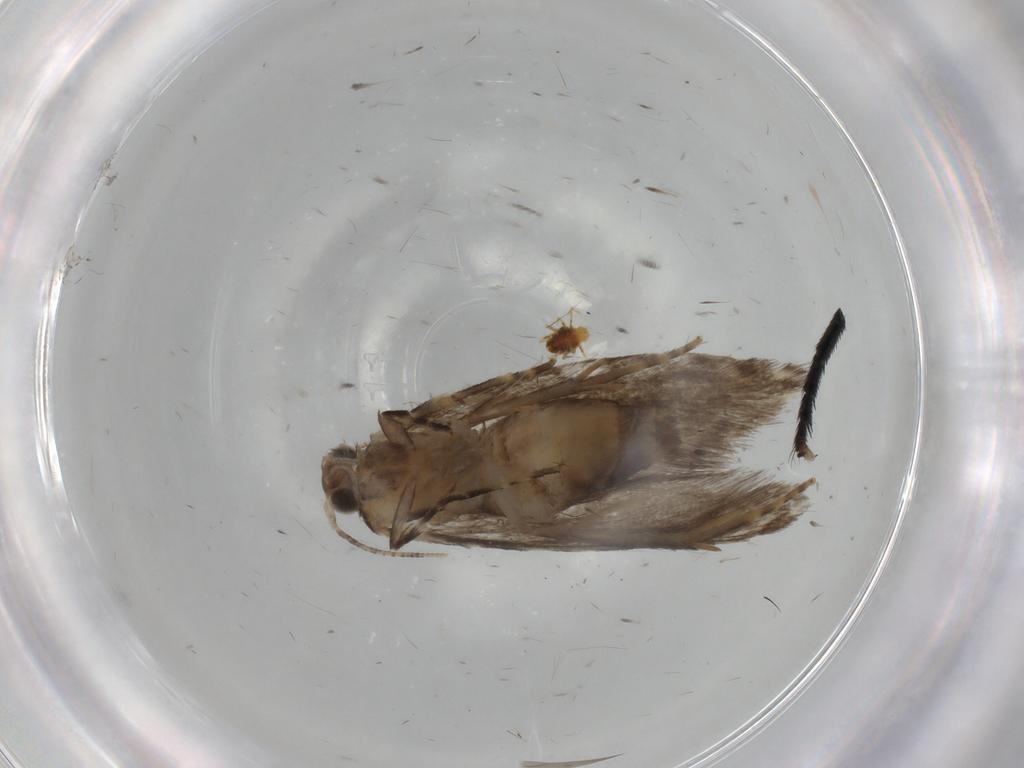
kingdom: Animalia
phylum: Arthropoda
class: Insecta
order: Lepidoptera
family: Tineidae
